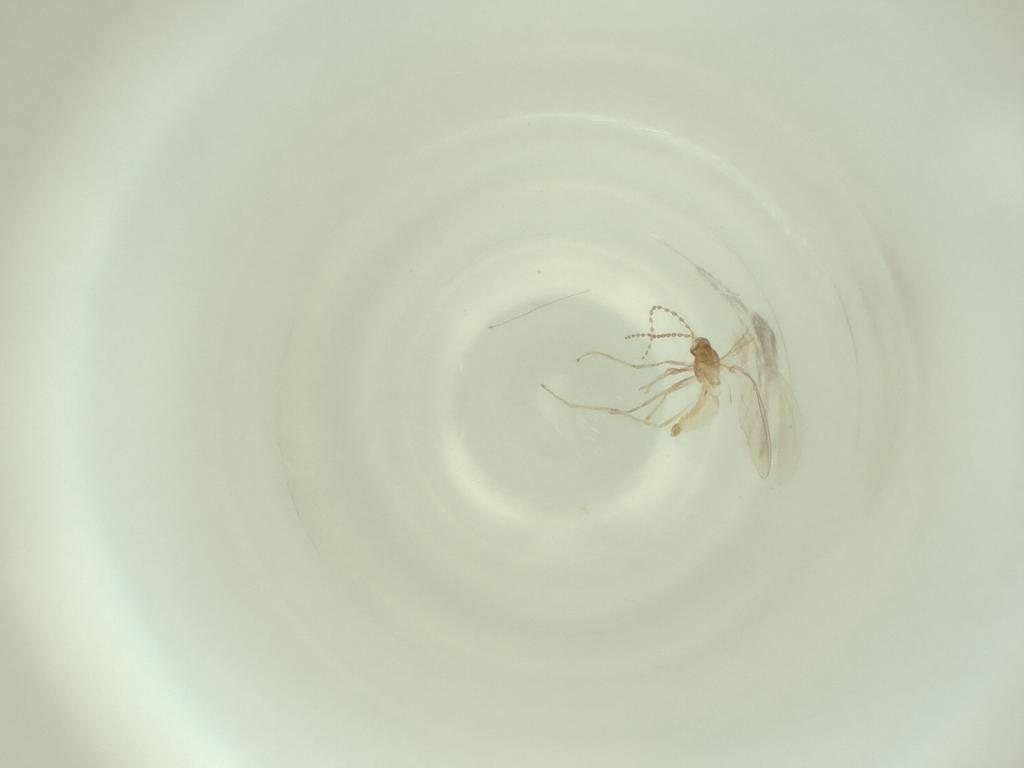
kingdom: Animalia
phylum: Arthropoda
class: Insecta
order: Diptera
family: Cecidomyiidae
